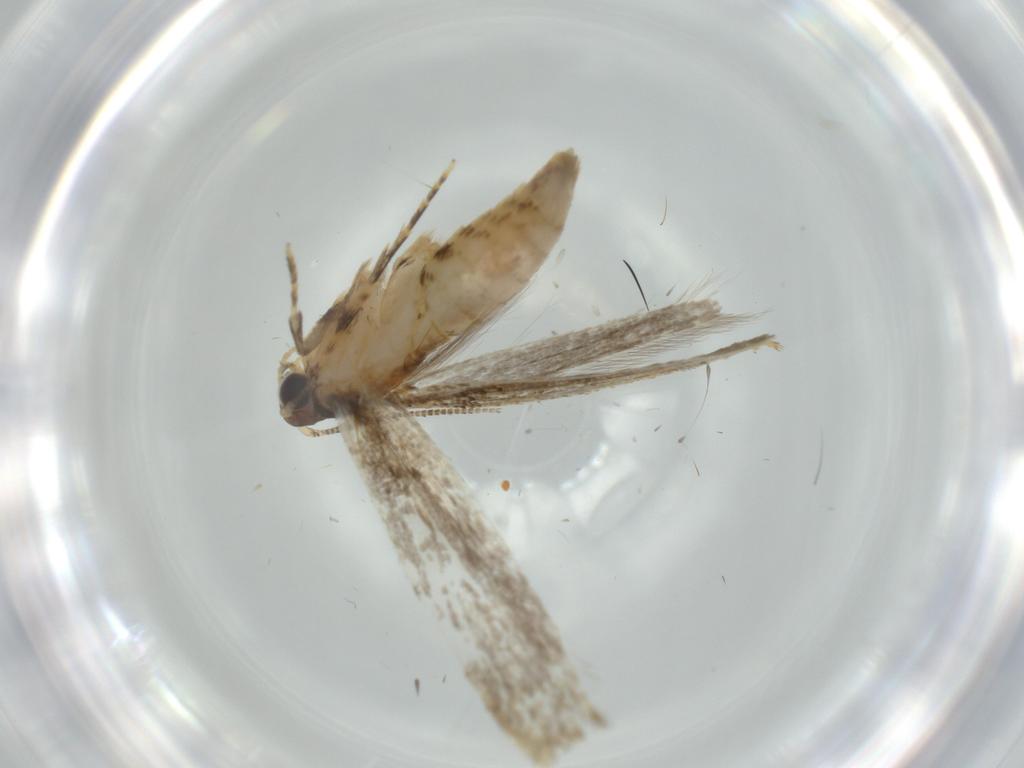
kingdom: Animalia
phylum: Arthropoda
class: Insecta
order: Lepidoptera
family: Tineidae
